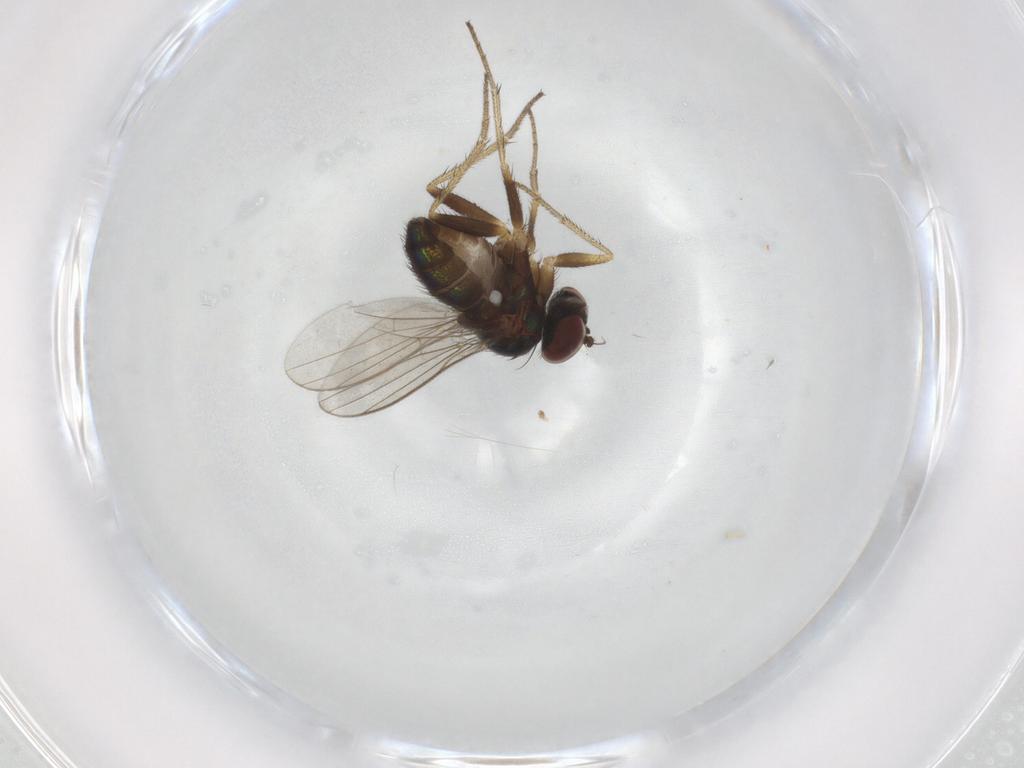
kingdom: Animalia
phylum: Arthropoda
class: Insecta
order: Diptera
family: Dolichopodidae
